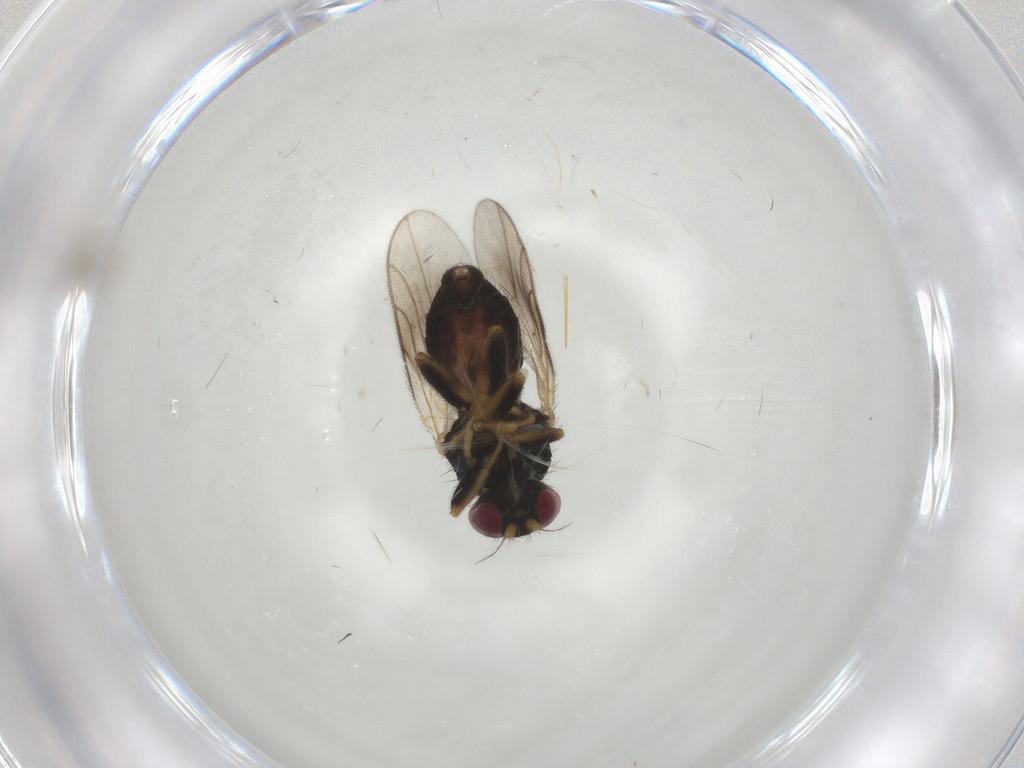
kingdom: Animalia
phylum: Arthropoda
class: Insecta
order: Diptera
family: Chloropidae
